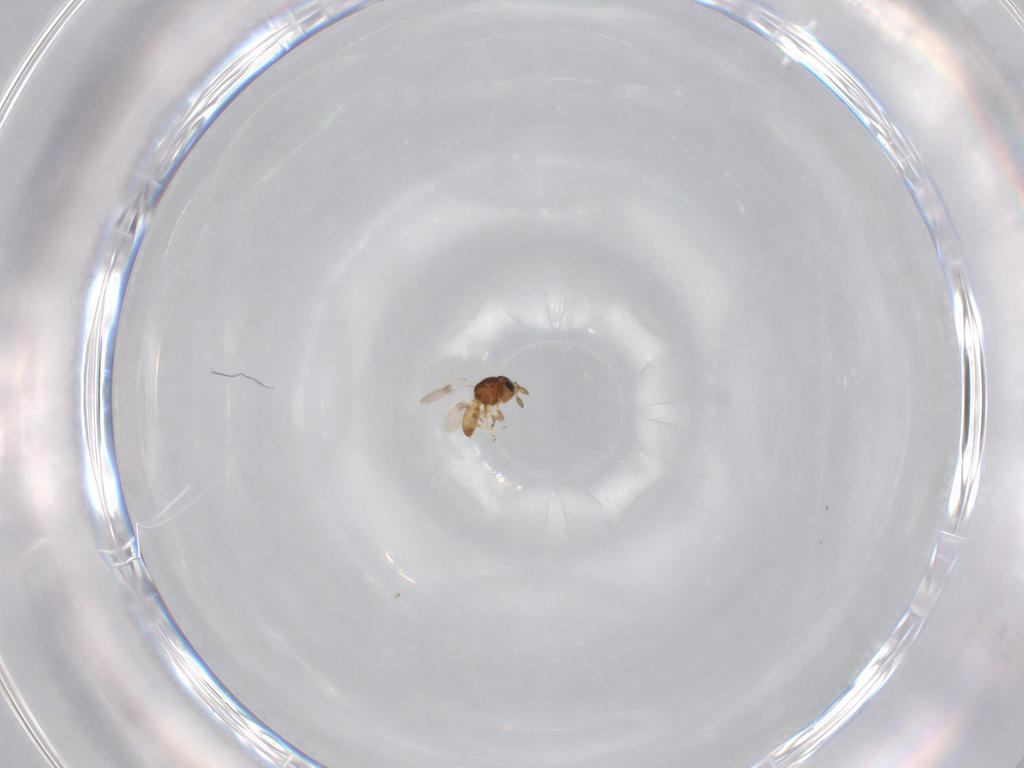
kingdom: Animalia
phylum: Arthropoda
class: Insecta
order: Hymenoptera
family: Scelionidae
